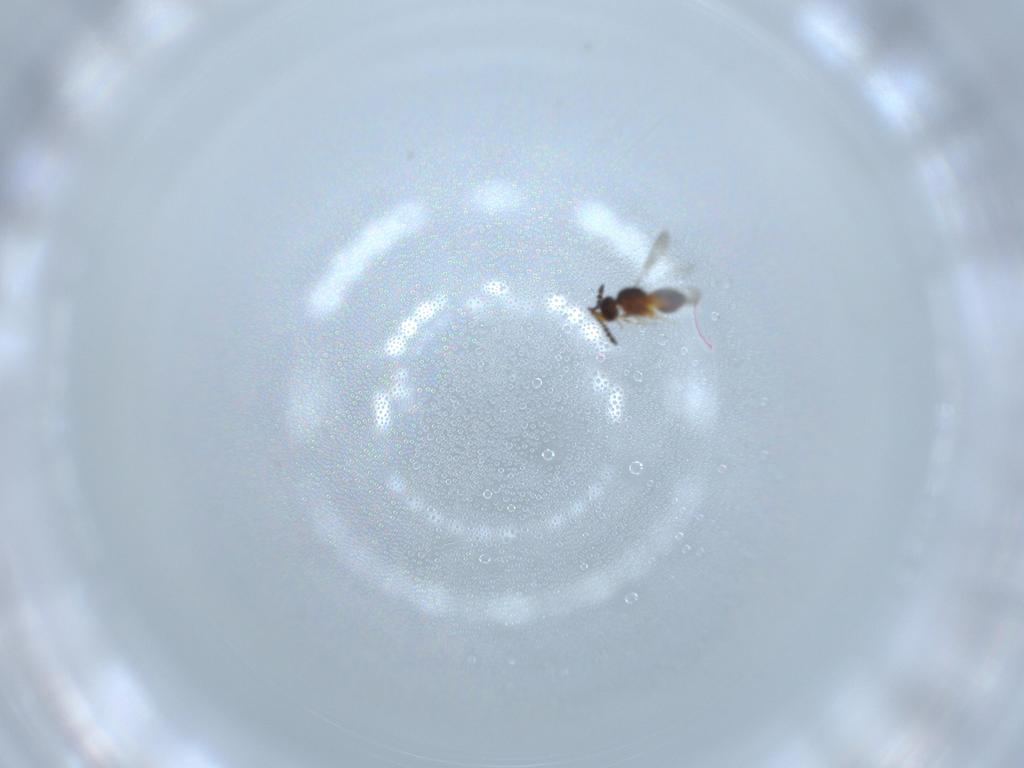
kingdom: Animalia
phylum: Arthropoda
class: Insecta
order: Hymenoptera
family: Ceraphronidae
